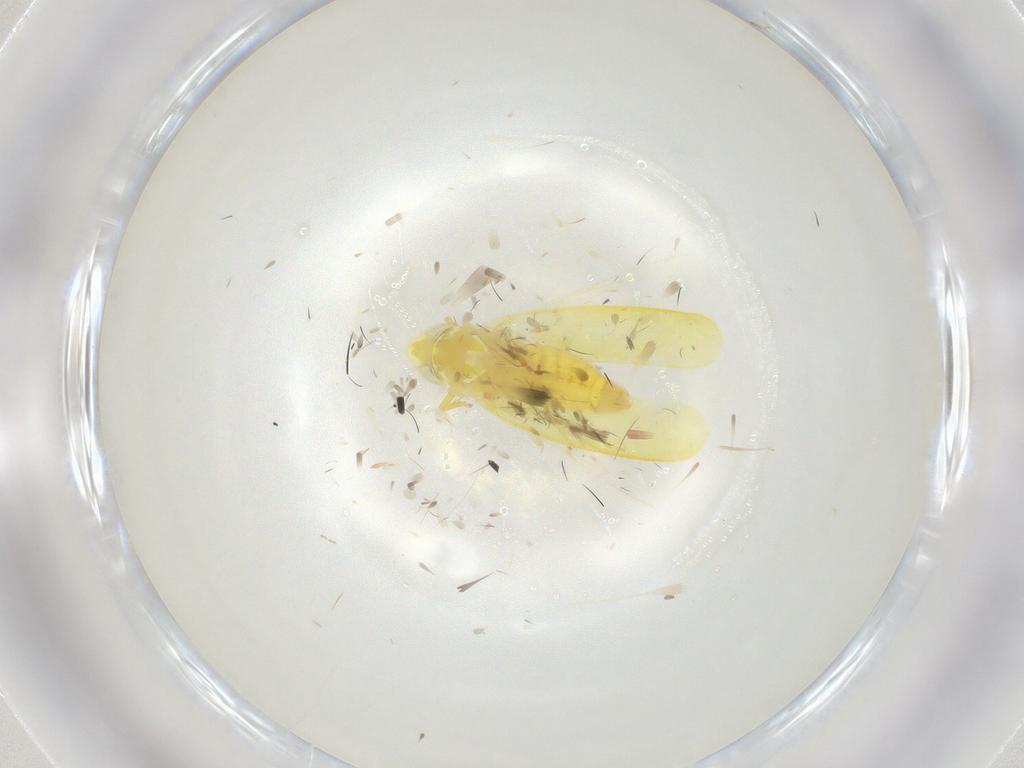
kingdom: Animalia
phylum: Arthropoda
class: Insecta
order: Hemiptera
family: Cicadellidae
